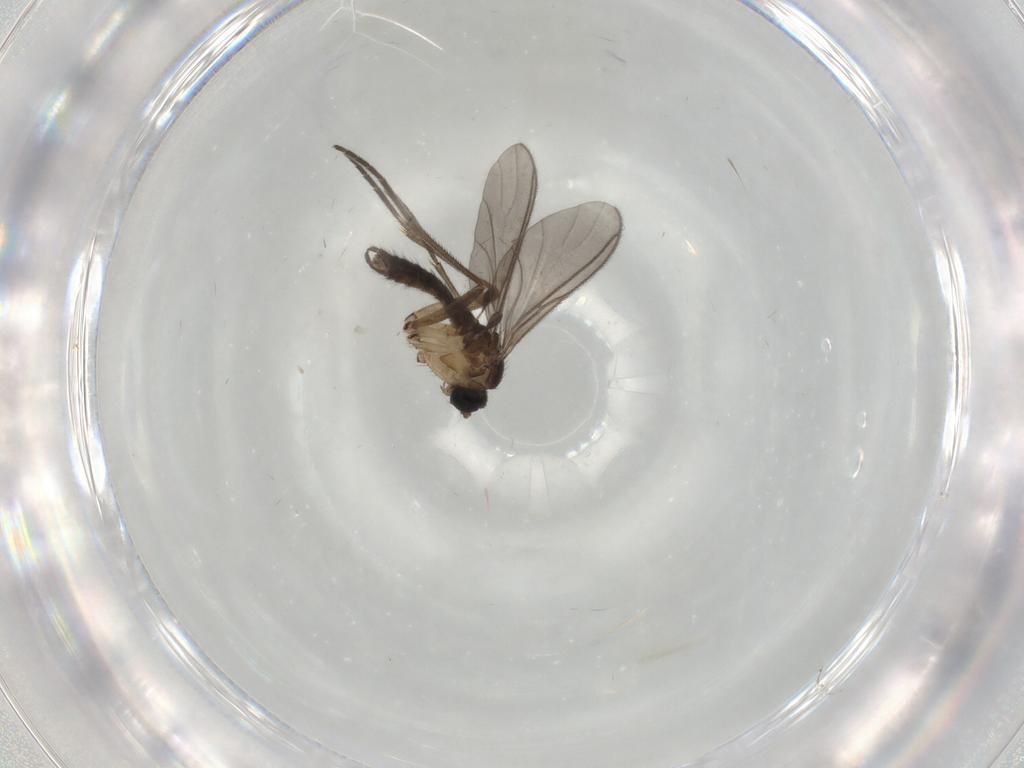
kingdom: Animalia
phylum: Arthropoda
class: Insecta
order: Diptera
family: Sciaridae
